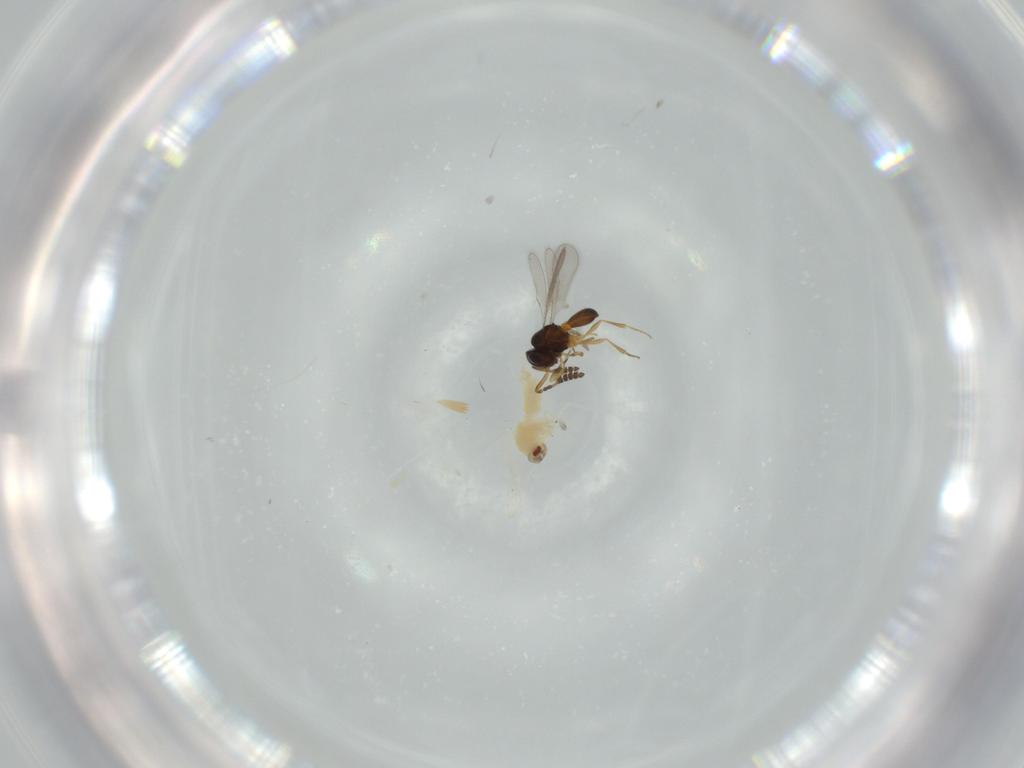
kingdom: Animalia
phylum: Arthropoda
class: Insecta
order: Hemiptera
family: Aleyrodidae
